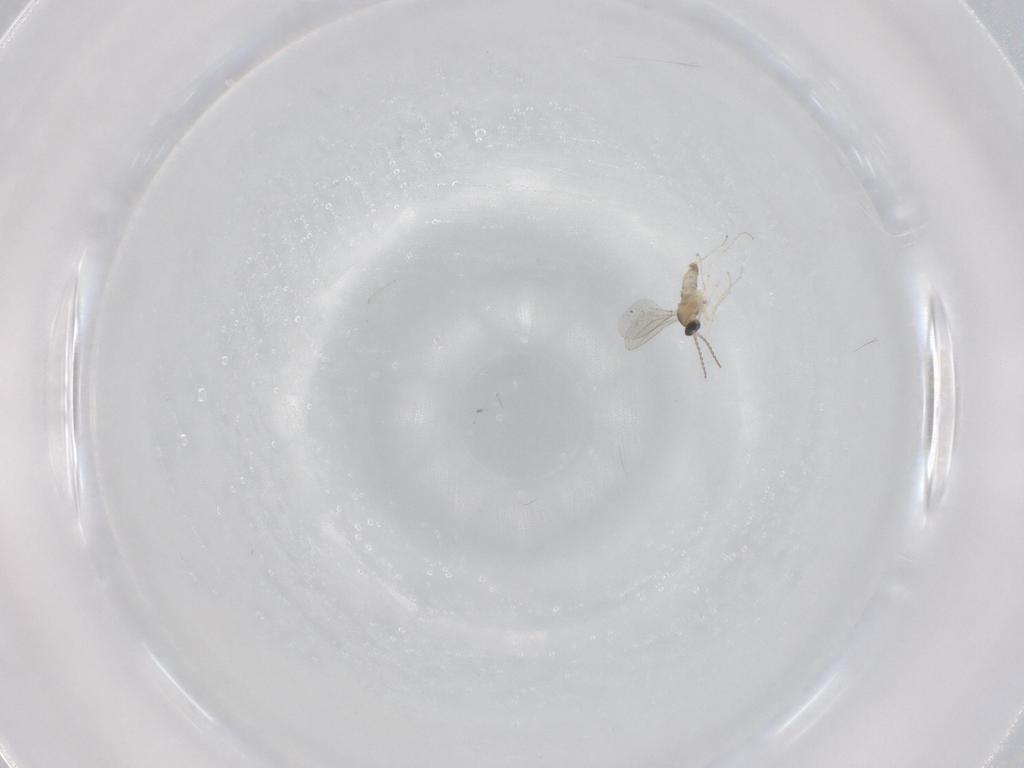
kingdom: Animalia
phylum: Arthropoda
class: Insecta
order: Diptera
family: Cecidomyiidae
